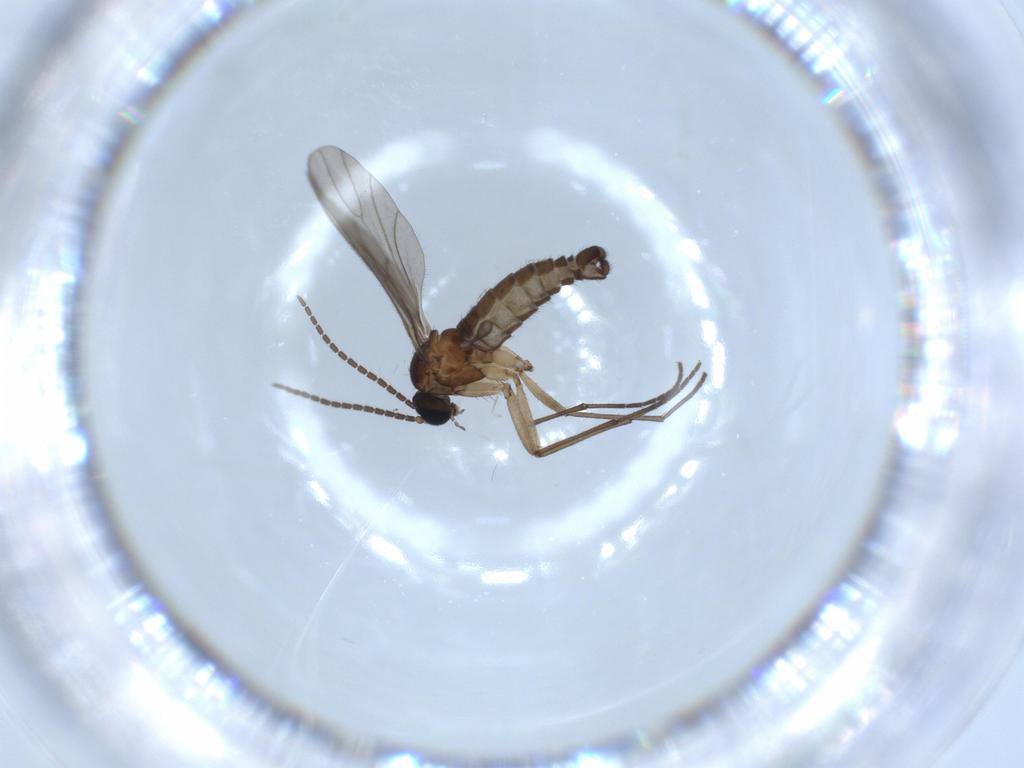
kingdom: Animalia
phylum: Arthropoda
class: Insecta
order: Diptera
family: Sciaridae
